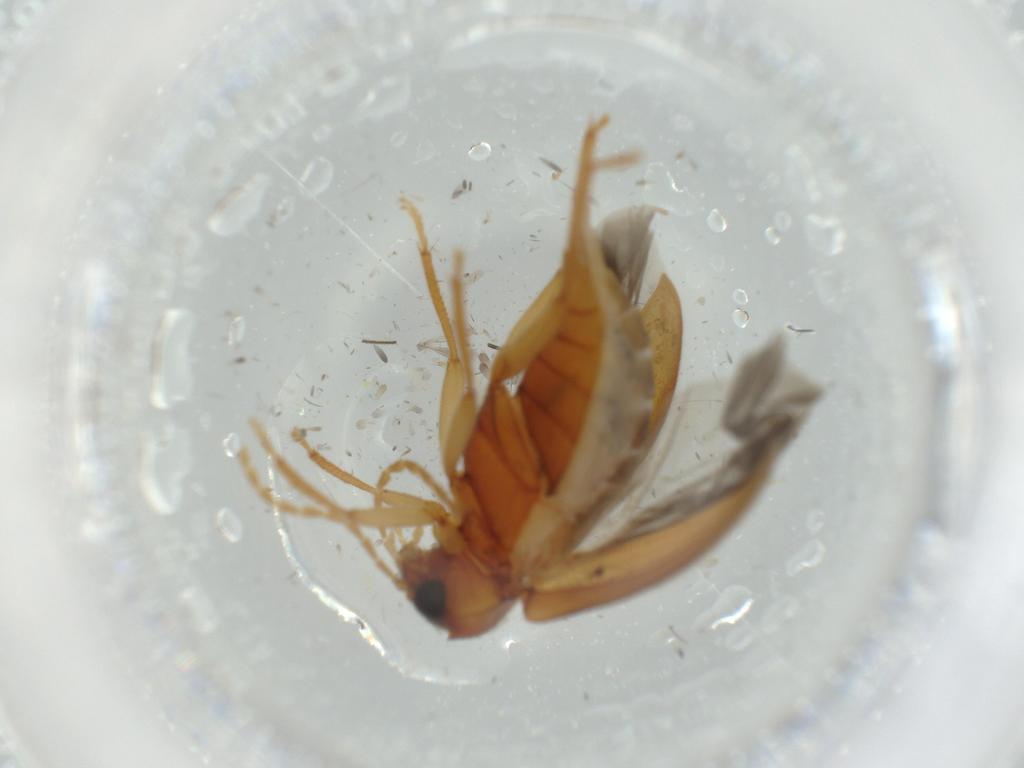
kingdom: Animalia
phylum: Arthropoda
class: Insecta
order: Coleoptera
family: Ptilodactylidae
